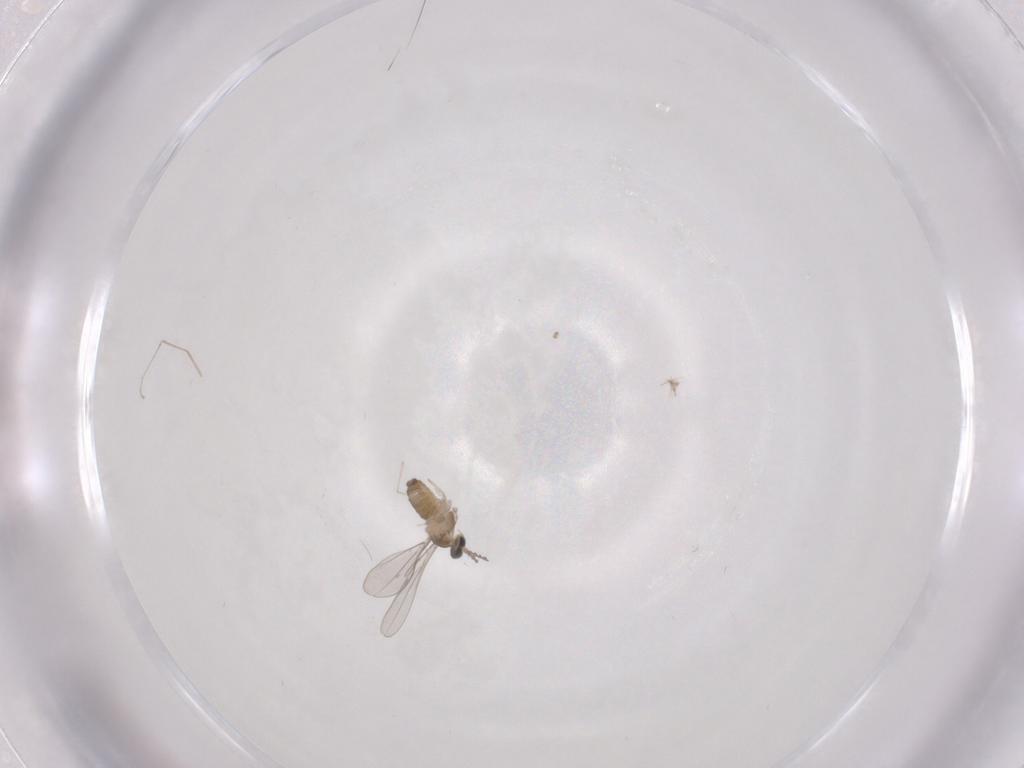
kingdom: Animalia
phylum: Arthropoda
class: Insecta
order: Diptera
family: Cecidomyiidae
